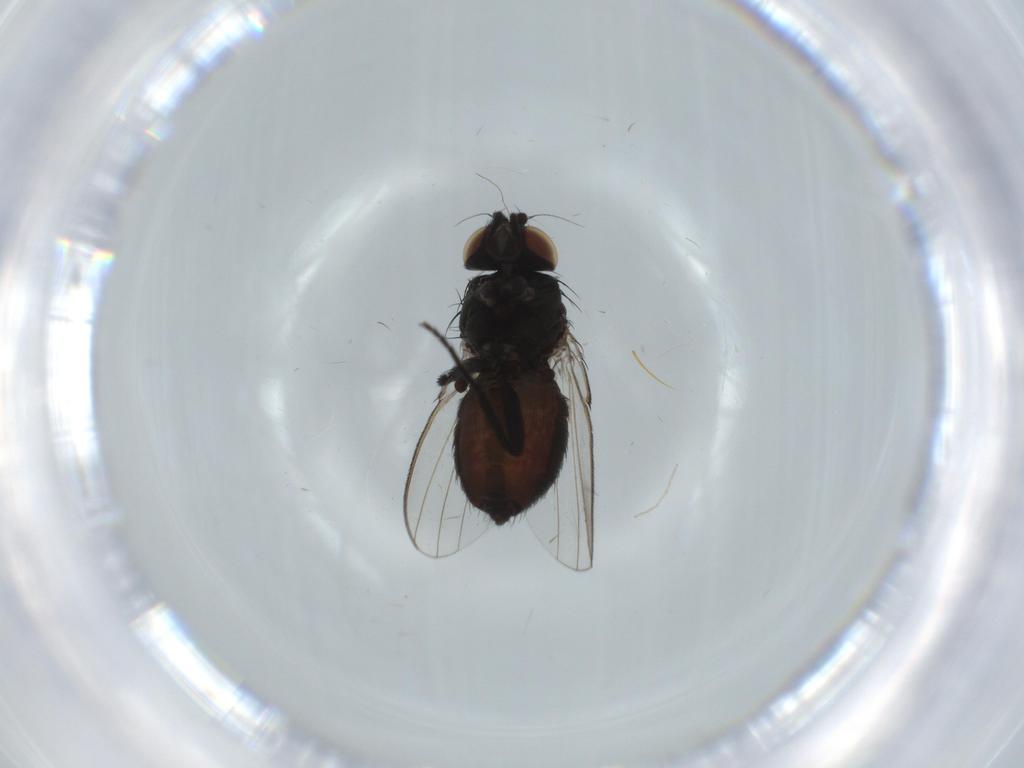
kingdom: Animalia
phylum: Arthropoda
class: Insecta
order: Diptera
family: Milichiidae
